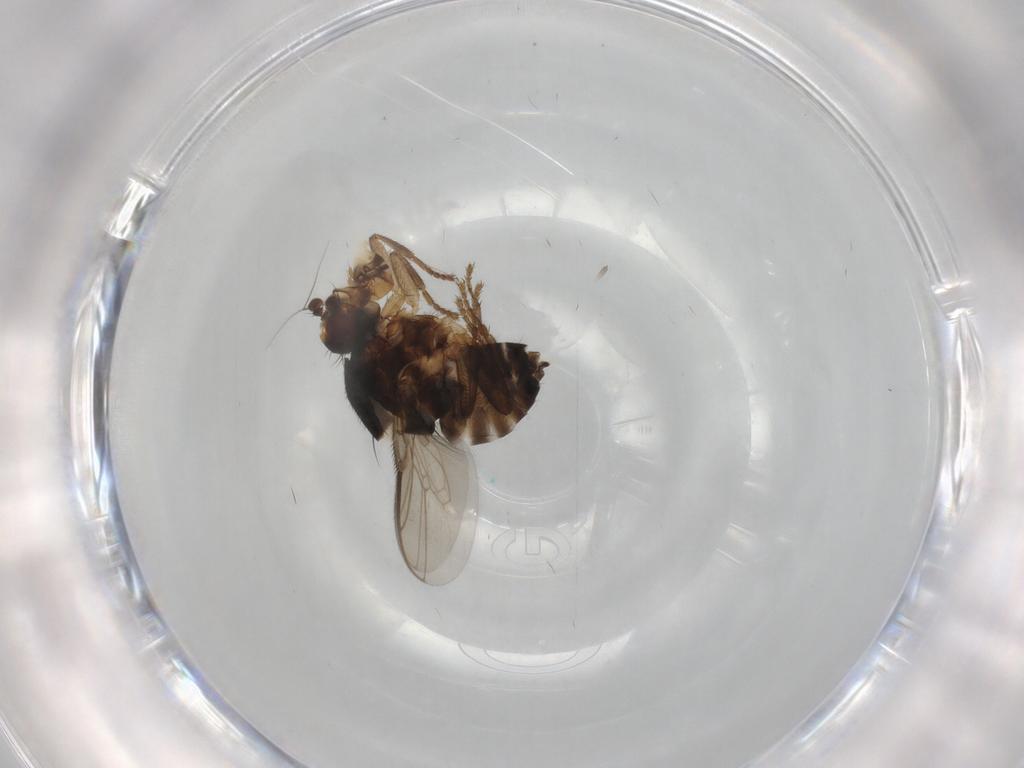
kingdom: Animalia
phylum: Arthropoda
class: Insecta
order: Diptera
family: Sphaeroceridae
